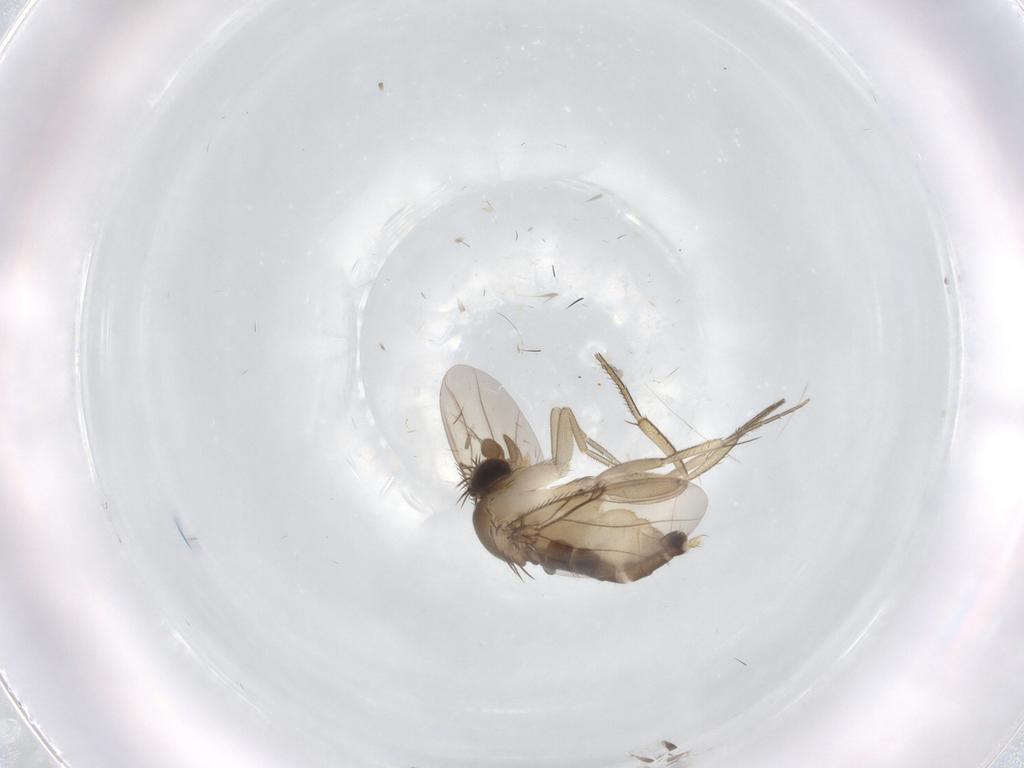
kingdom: Animalia
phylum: Arthropoda
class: Insecta
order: Diptera
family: Phoridae
